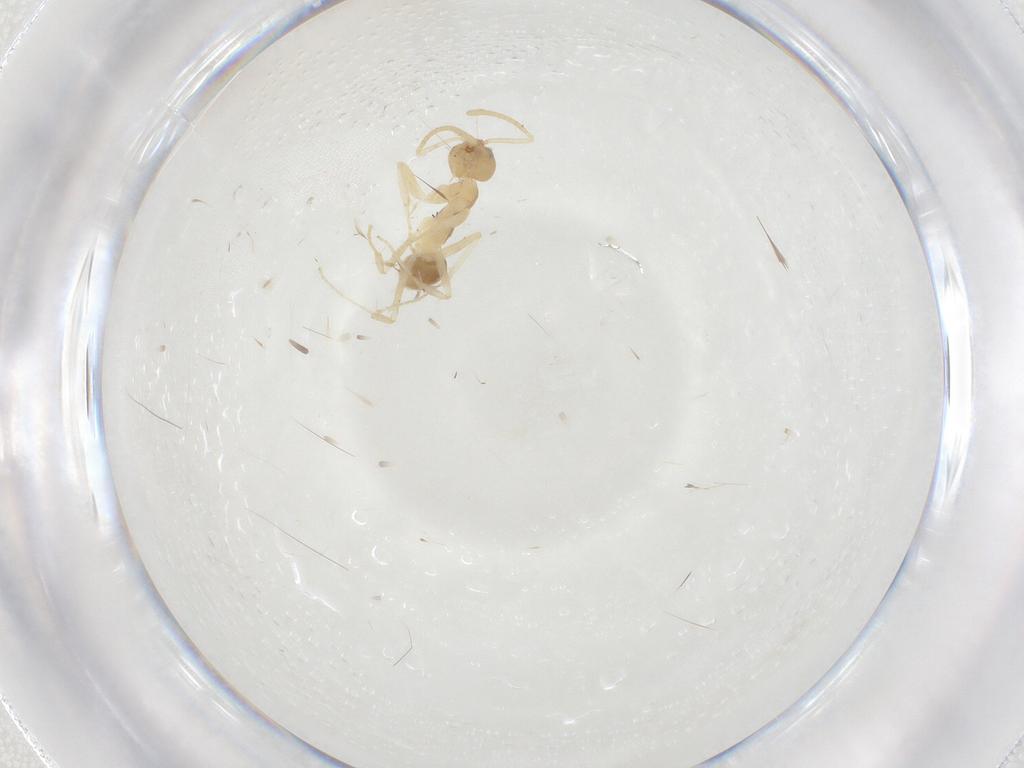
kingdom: Animalia
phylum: Arthropoda
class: Insecta
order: Hymenoptera
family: Formicidae
